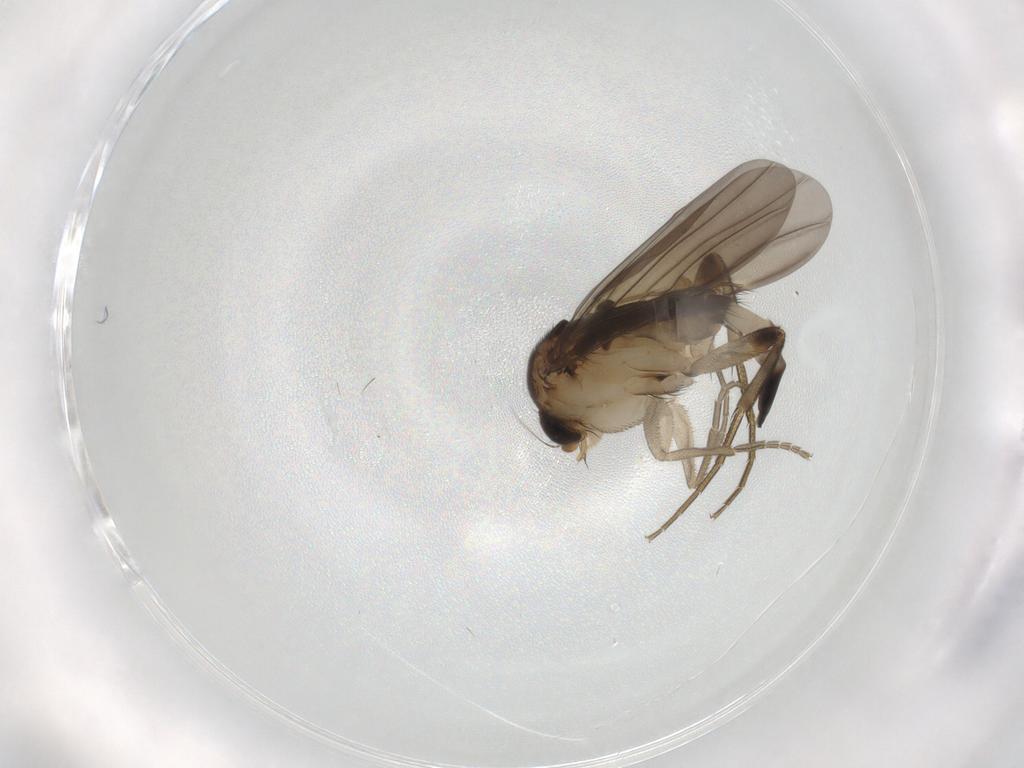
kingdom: Animalia
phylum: Arthropoda
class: Insecta
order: Diptera
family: Phoridae
